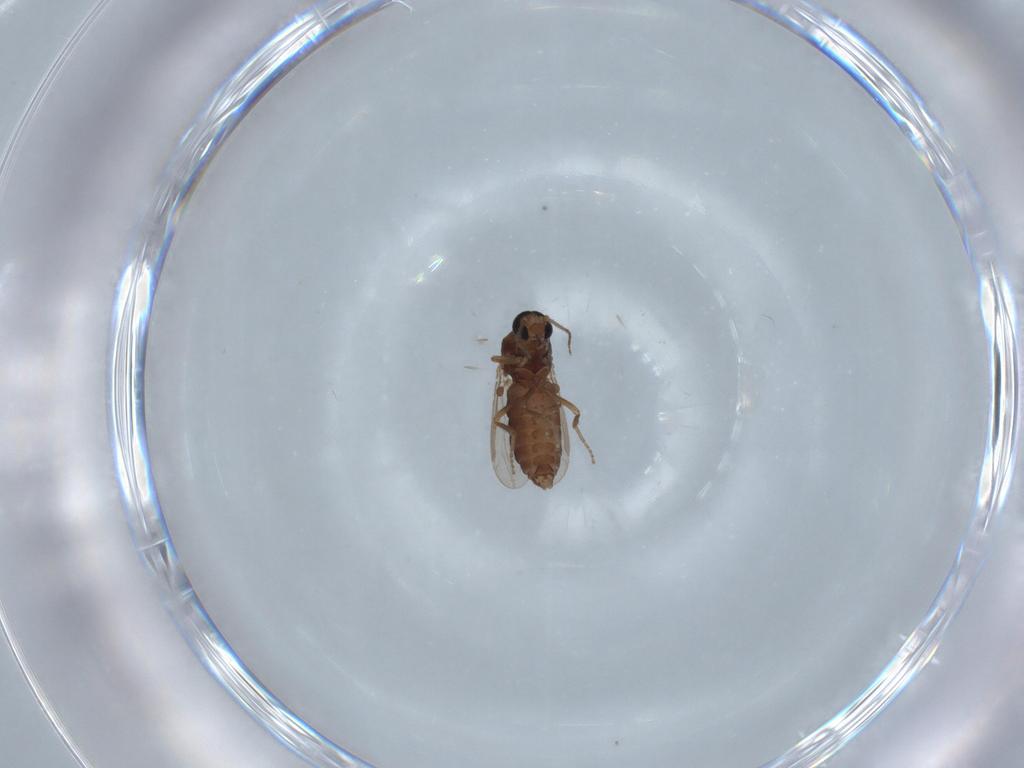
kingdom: Animalia
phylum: Arthropoda
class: Insecta
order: Diptera
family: Ceratopogonidae
